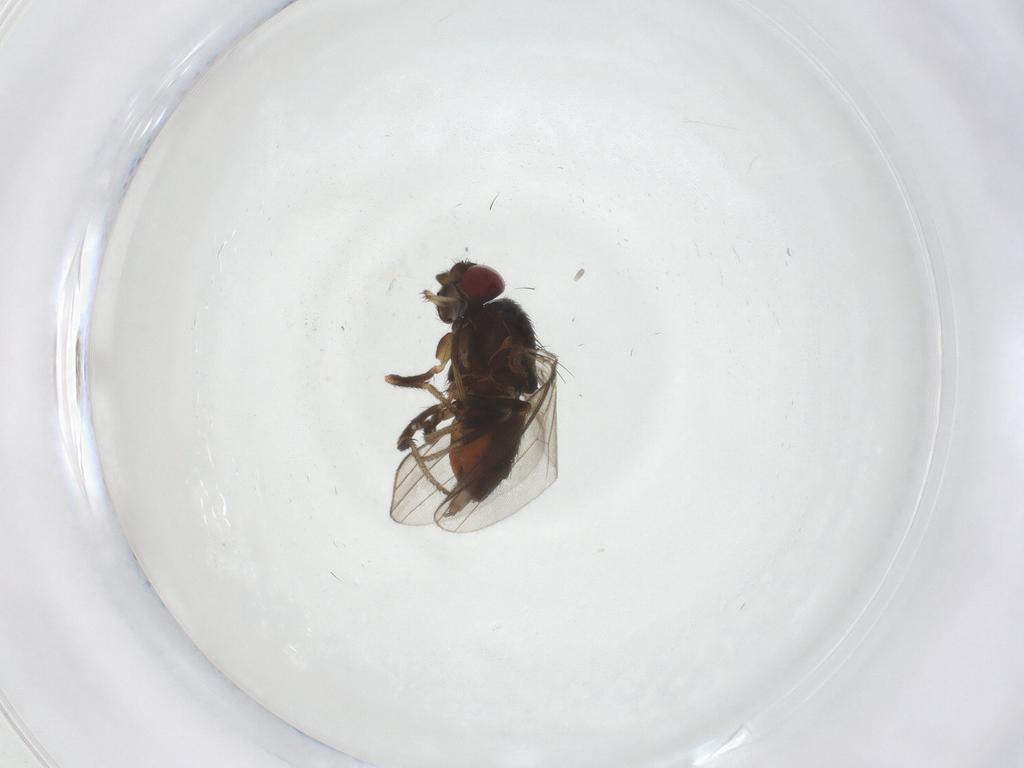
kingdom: Animalia
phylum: Arthropoda
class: Insecta
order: Diptera
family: Milichiidae
